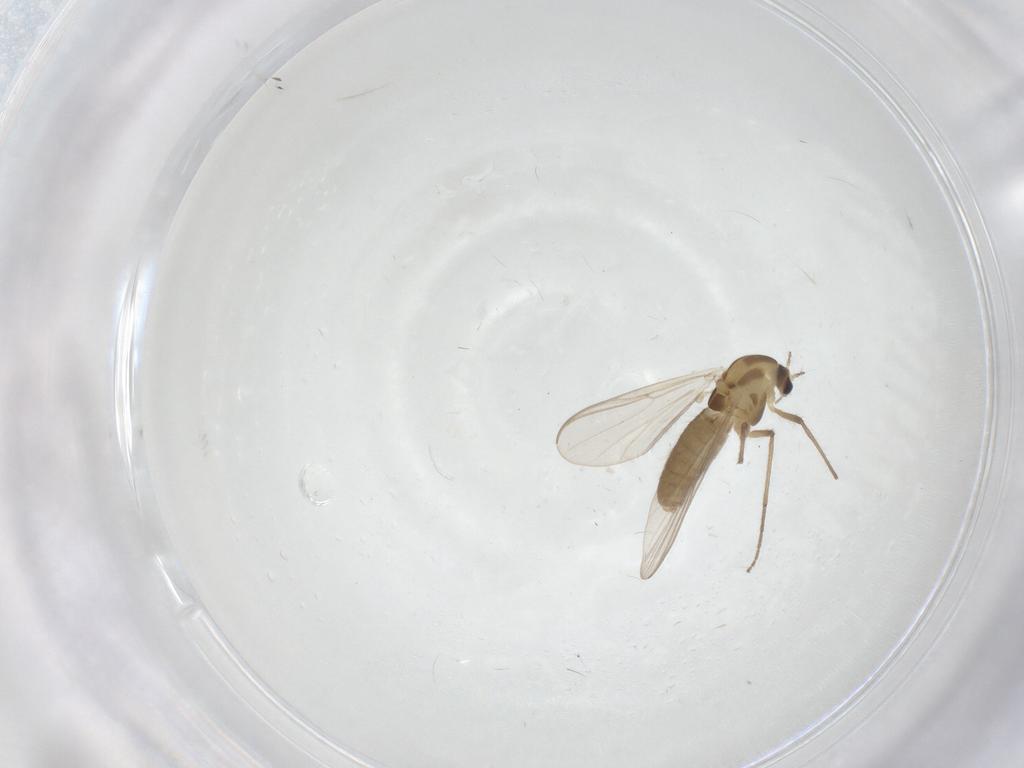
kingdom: Animalia
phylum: Arthropoda
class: Insecta
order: Diptera
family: Chironomidae
